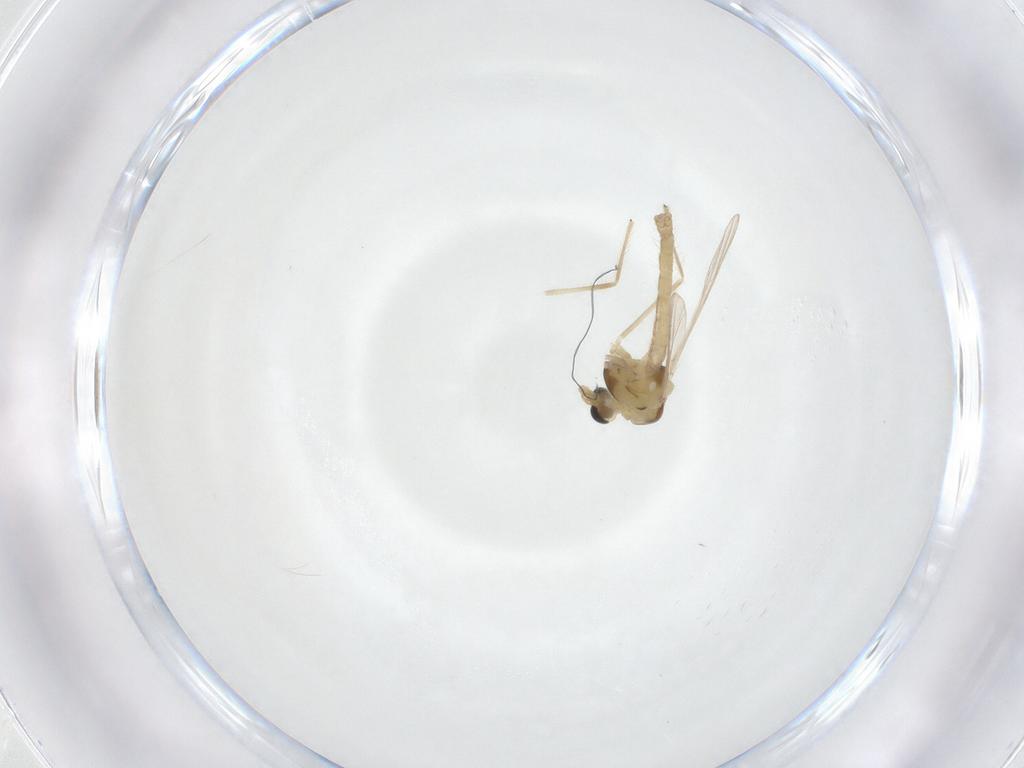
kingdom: Animalia
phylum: Arthropoda
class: Insecta
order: Diptera
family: Chironomidae
